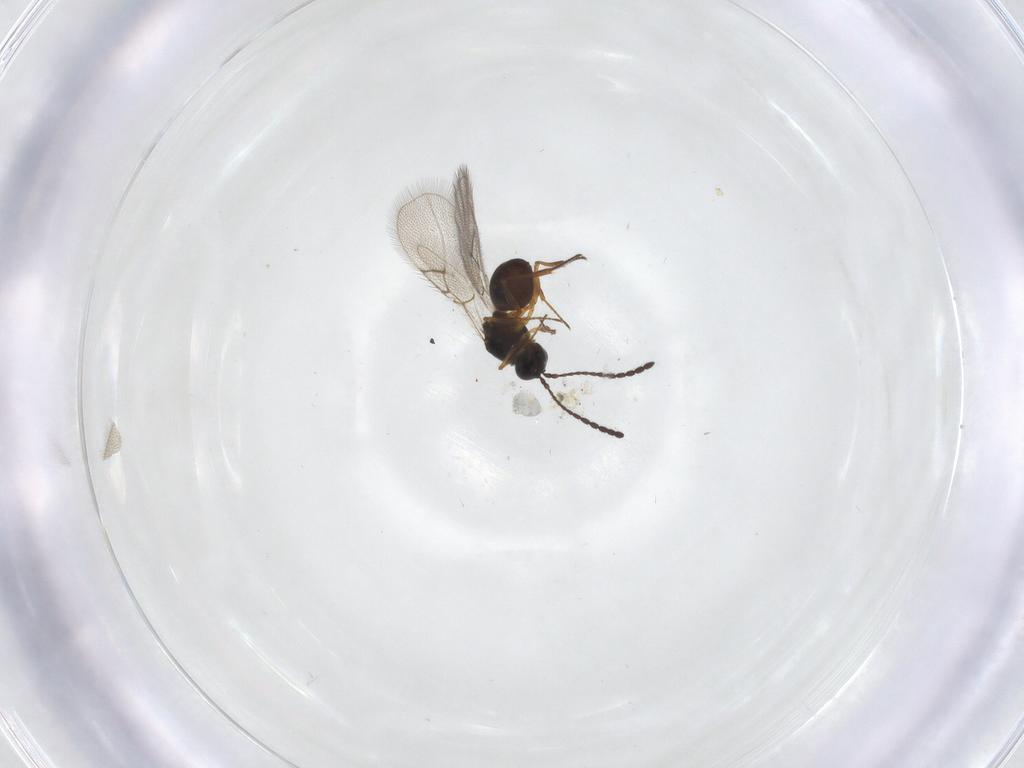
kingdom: Animalia
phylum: Arthropoda
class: Insecta
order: Hymenoptera
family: Figitidae
